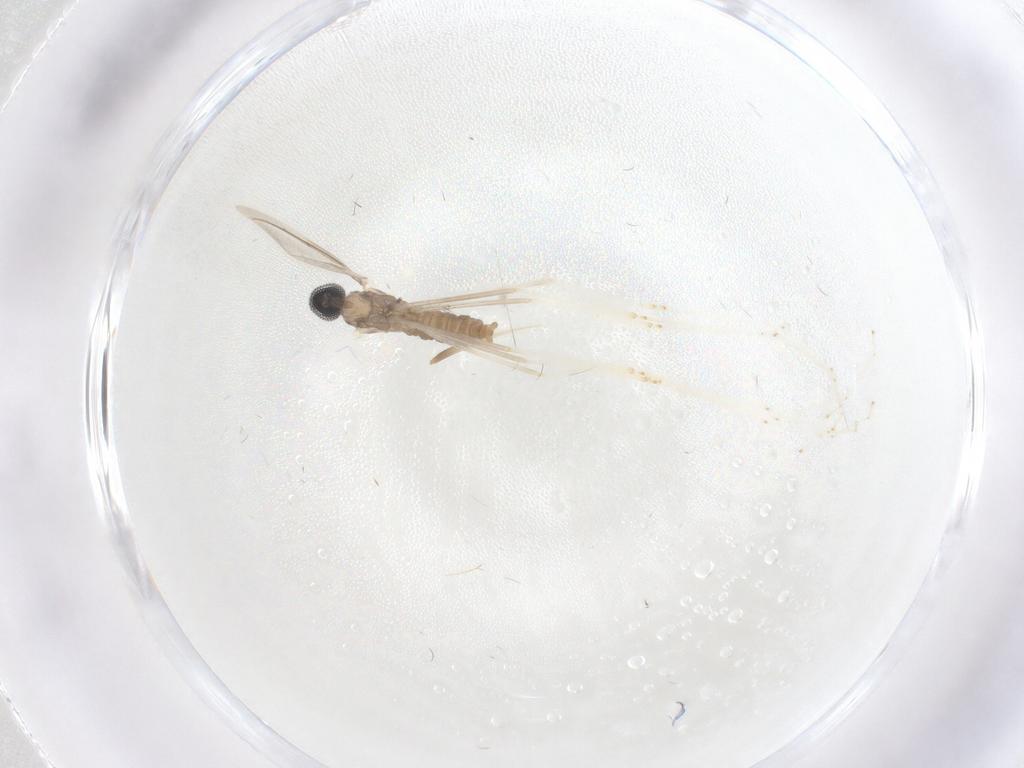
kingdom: Animalia
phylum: Arthropoda
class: Insecta
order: Diptera
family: Cecidomyiidae
